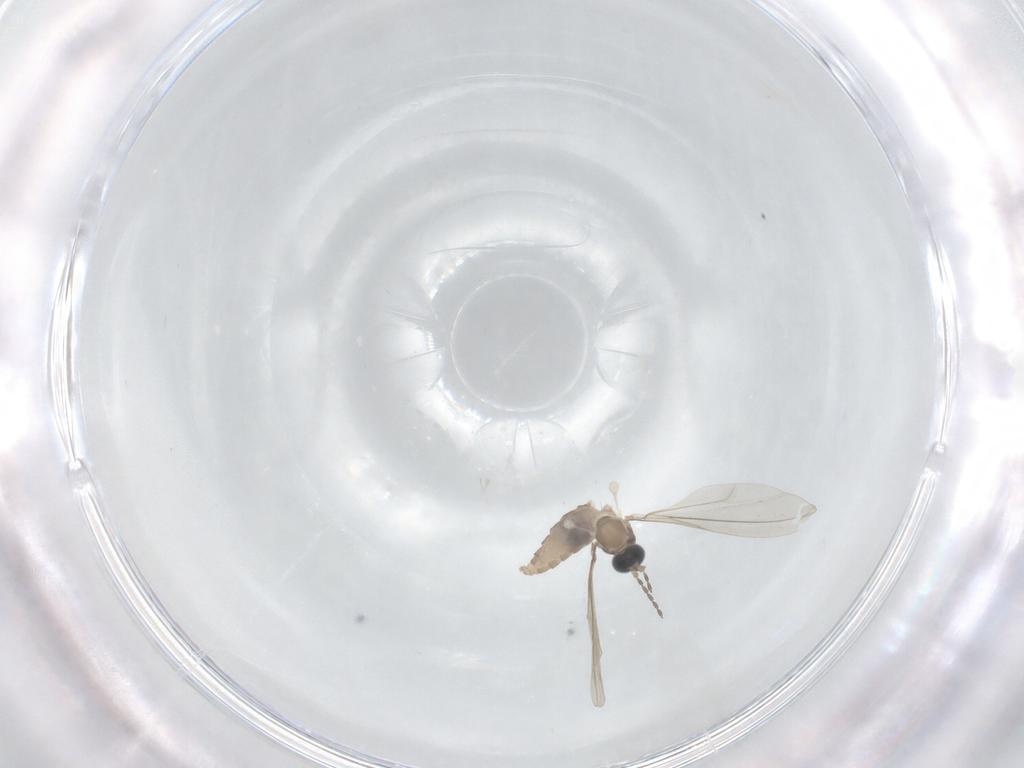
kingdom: Animalia
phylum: Arthropoda
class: Insecta
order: Diptera
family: Cecidomyiidae
